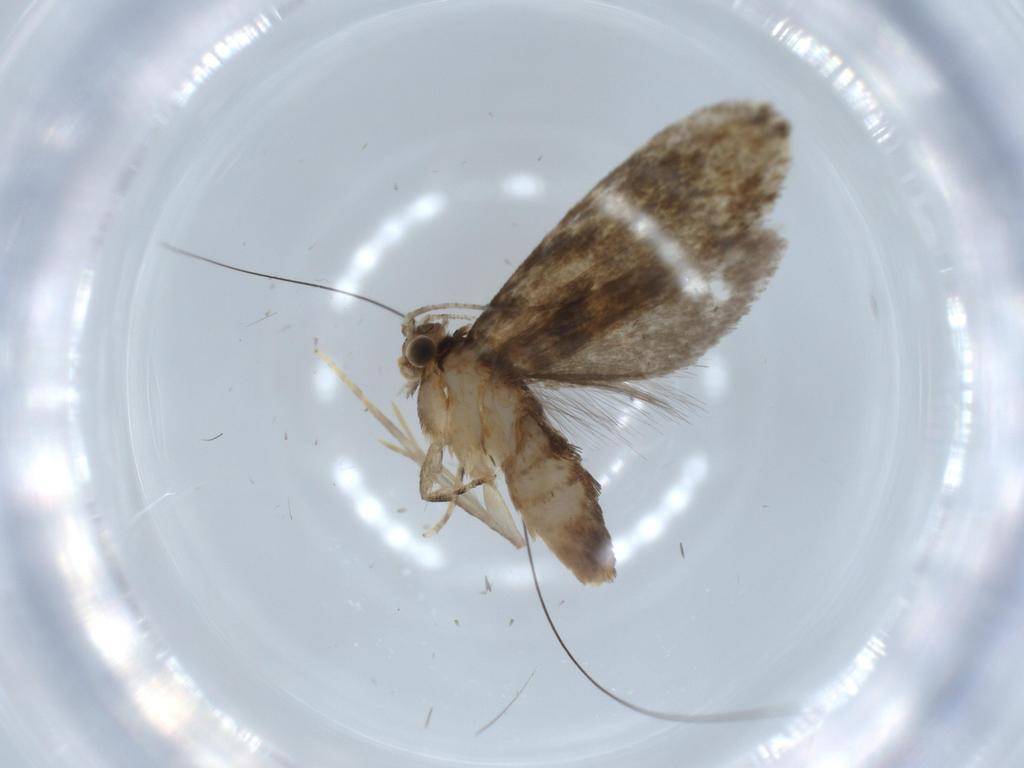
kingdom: Animalia
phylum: Arthropoda
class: Insecta
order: Lepidoptera
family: Tineidae
